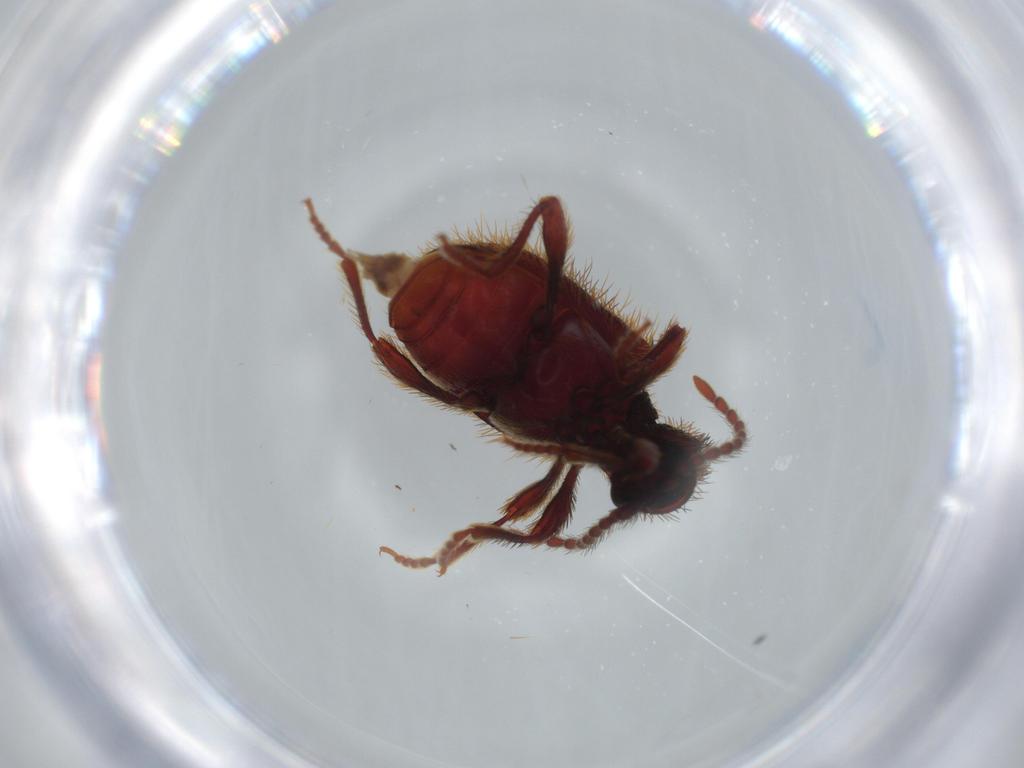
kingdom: Animalia
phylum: Arthropoda
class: Insecta
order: Coleoptera
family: Ptinidae
